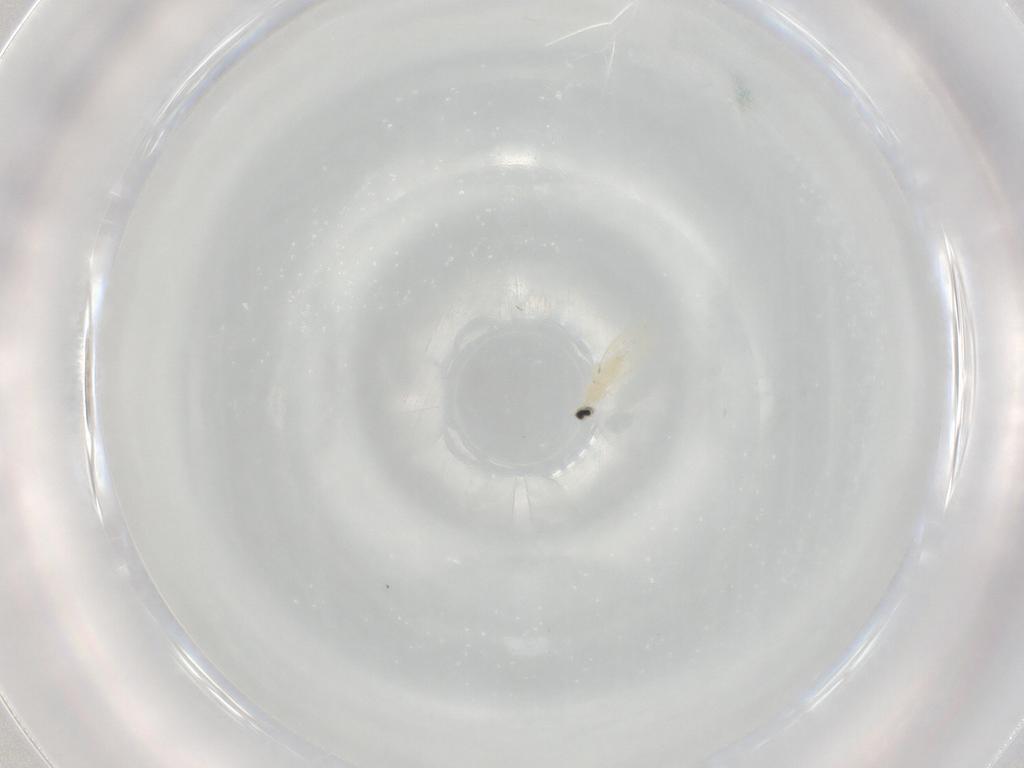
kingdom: Animalia
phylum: Arthropoda
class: Insecta
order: Diptera
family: Cecidomyiidae
